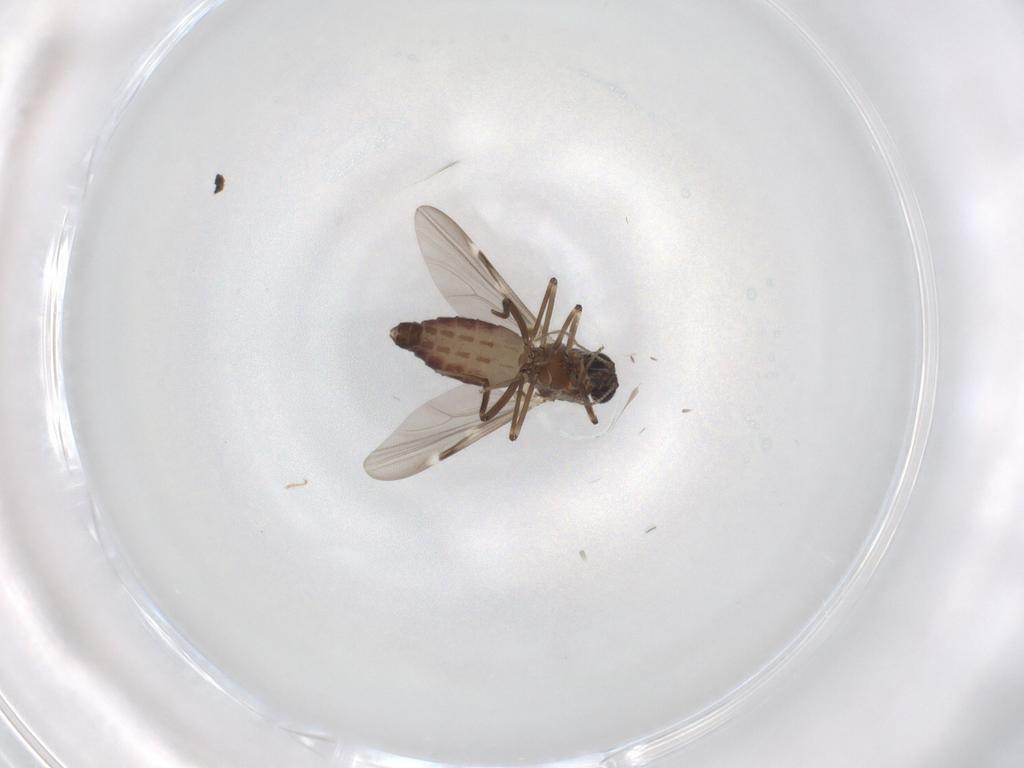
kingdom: Animalia
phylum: Arthropoda
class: Insecta
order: Diptera
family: Ceratopogonidae
